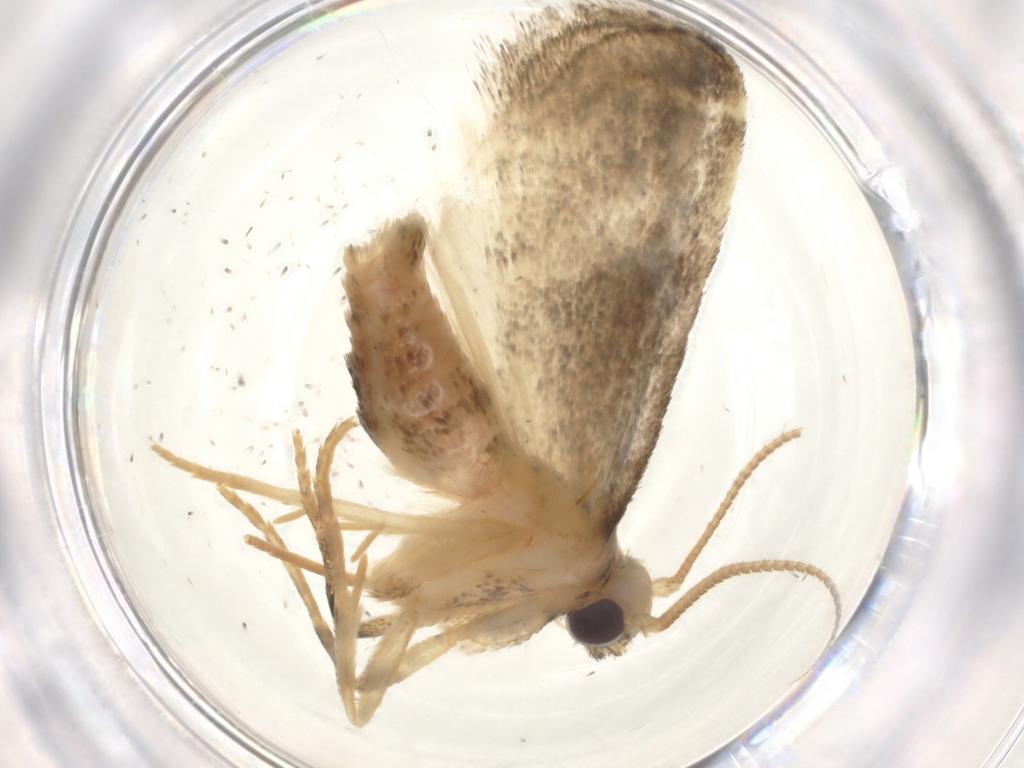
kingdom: Animalia
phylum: Arthropoda
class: Insecta
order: Lepidoptera
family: Pyralidae
